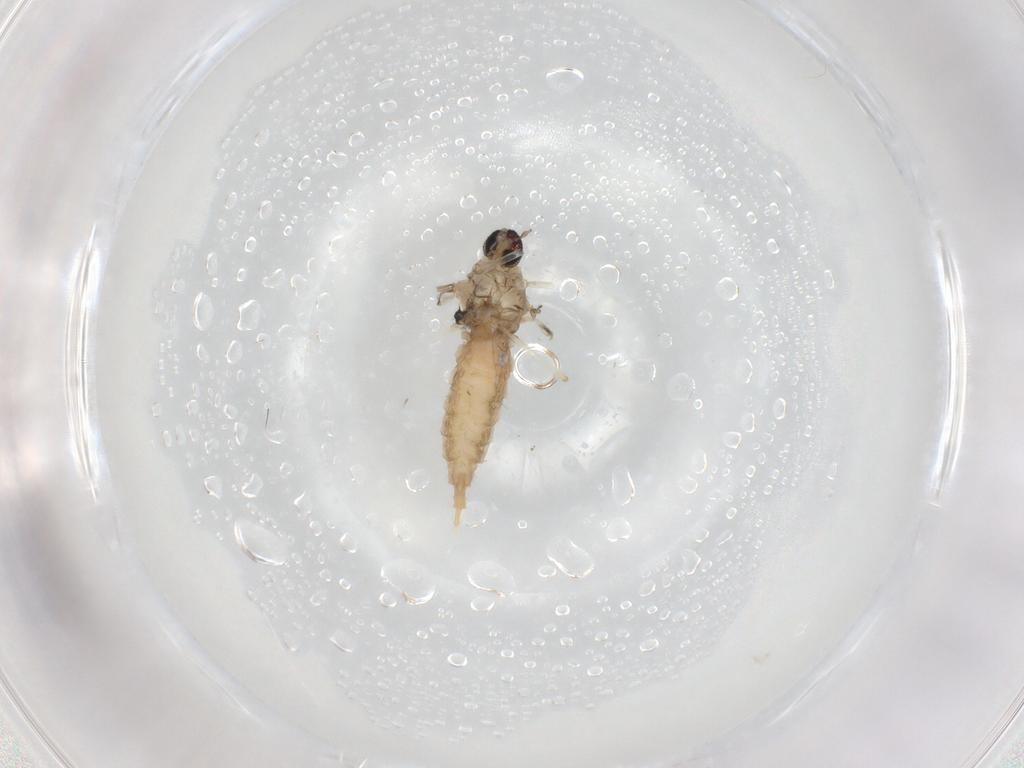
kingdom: Animalia
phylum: Arthropoda
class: Insecta
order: Diptera
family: Cecidomyiidae
